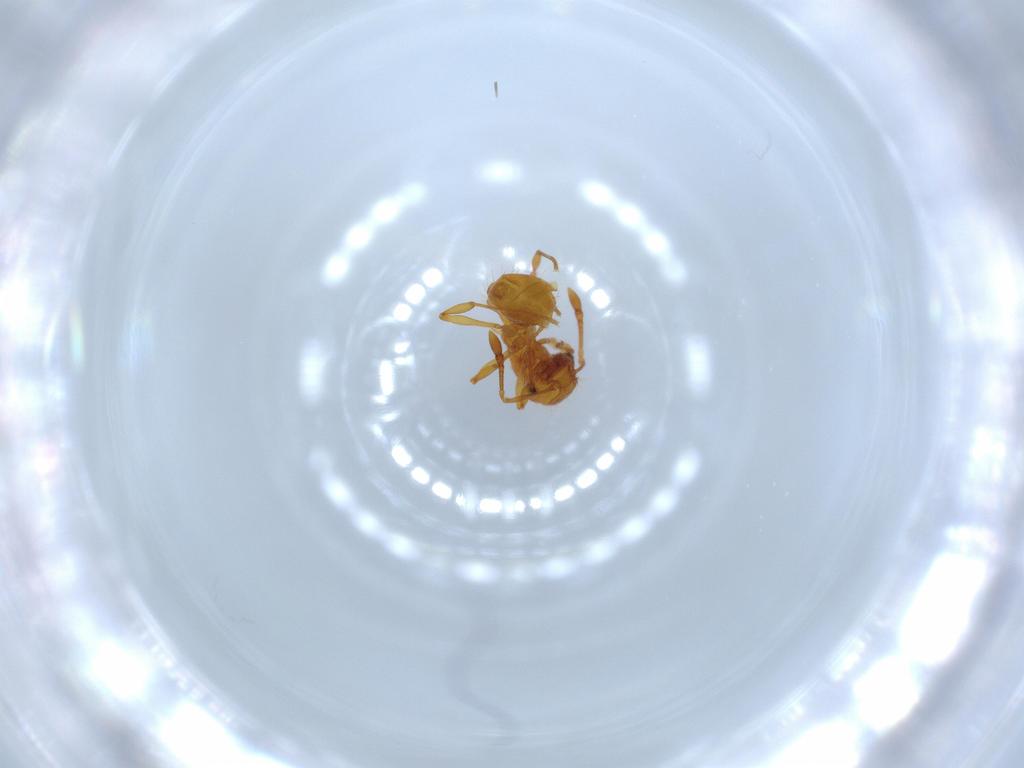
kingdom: Animalia
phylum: Arthropoda
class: Insecta
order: Hymenoptera
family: Formicidae
